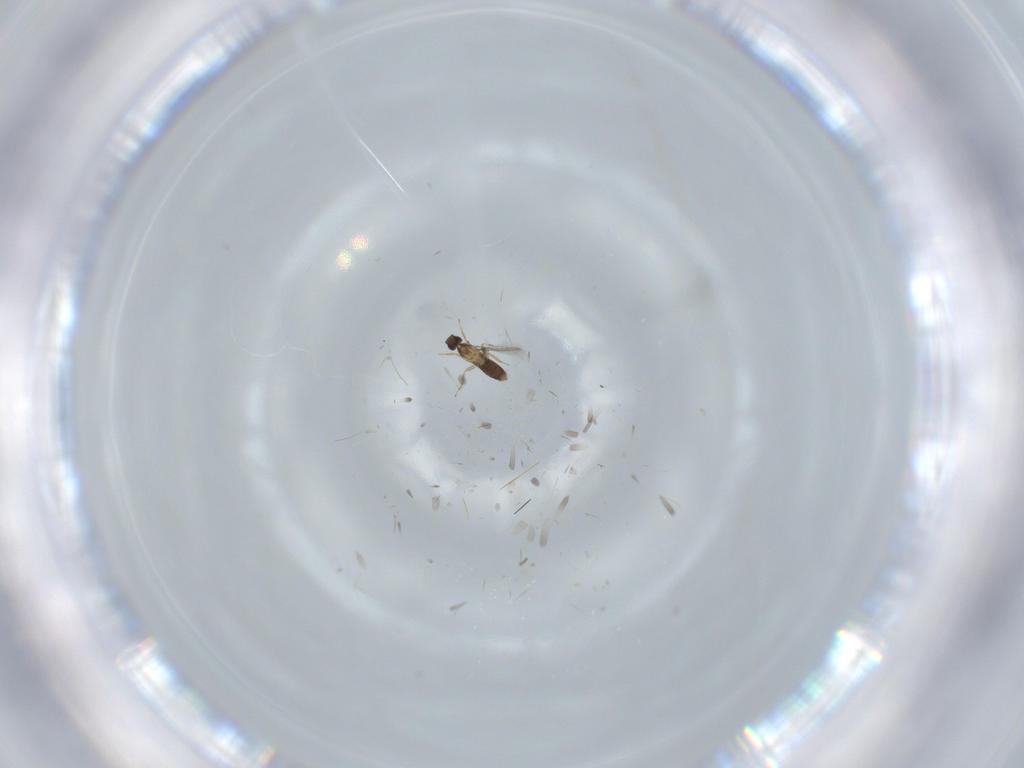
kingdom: Animalia
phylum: Arthropoda
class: Insecta
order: Hymenoptera
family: Mymaridae
